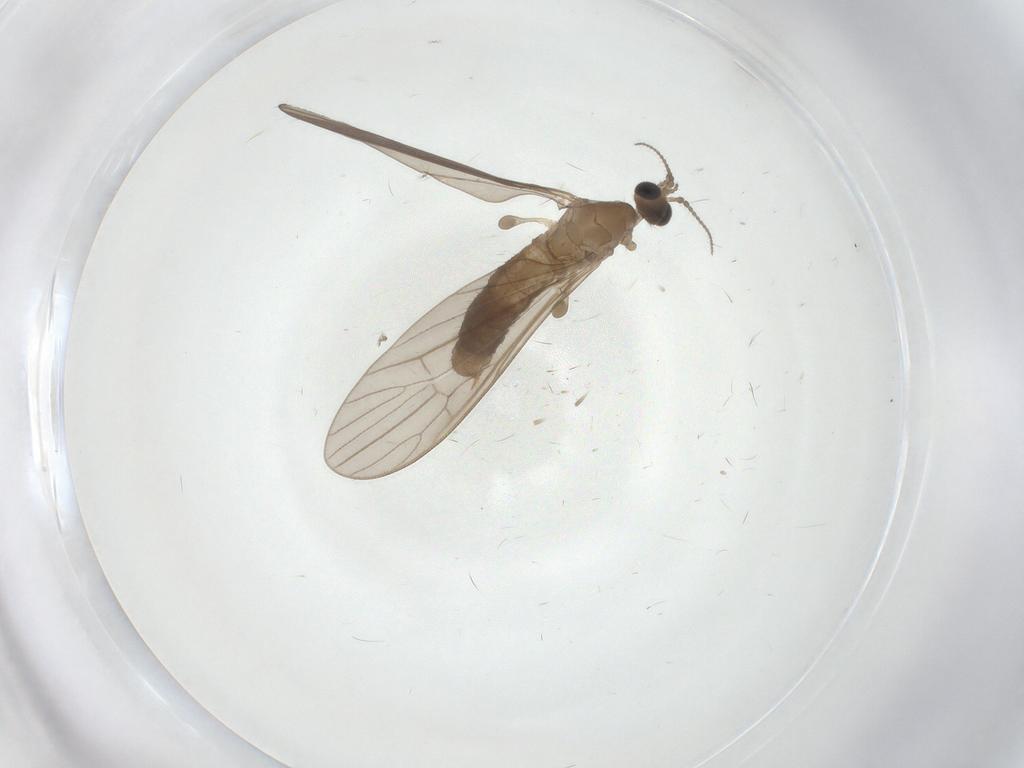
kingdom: Animalia
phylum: Arthropoda
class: Insecta
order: Diptera
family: Limoniidae
